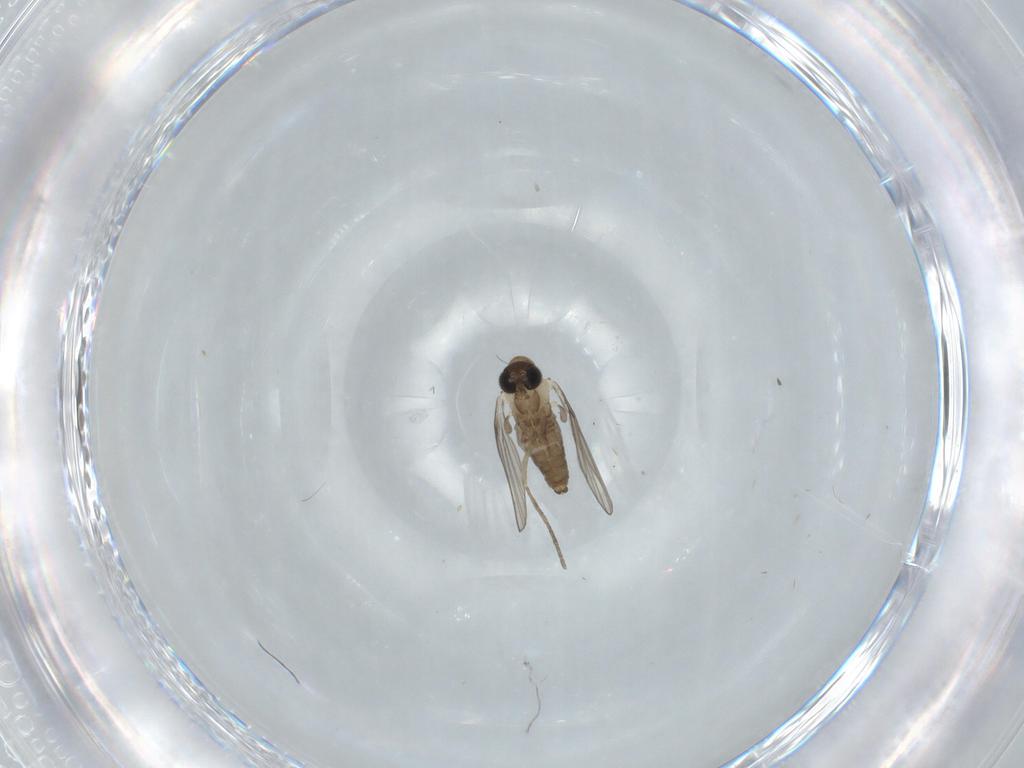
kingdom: Animalia
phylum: Arthropoda
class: Insecta
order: Diptera
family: Psychodidae
